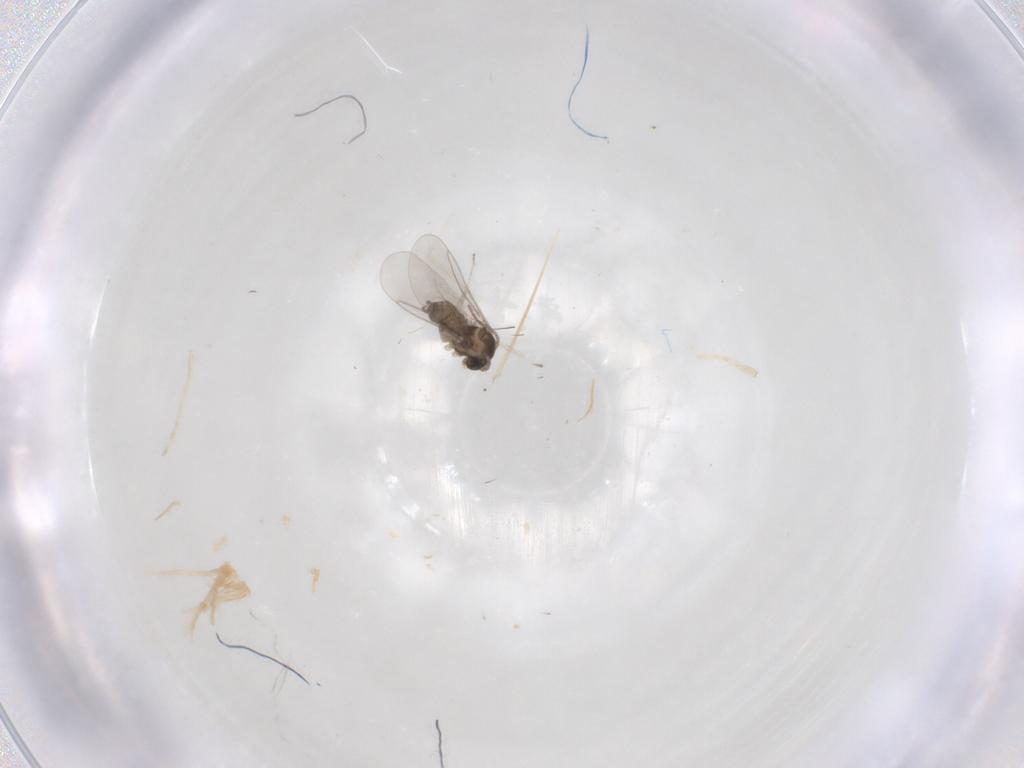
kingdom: Animalia
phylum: Arthropoda
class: Insecta
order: Diptera
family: Cecidomyiidae
